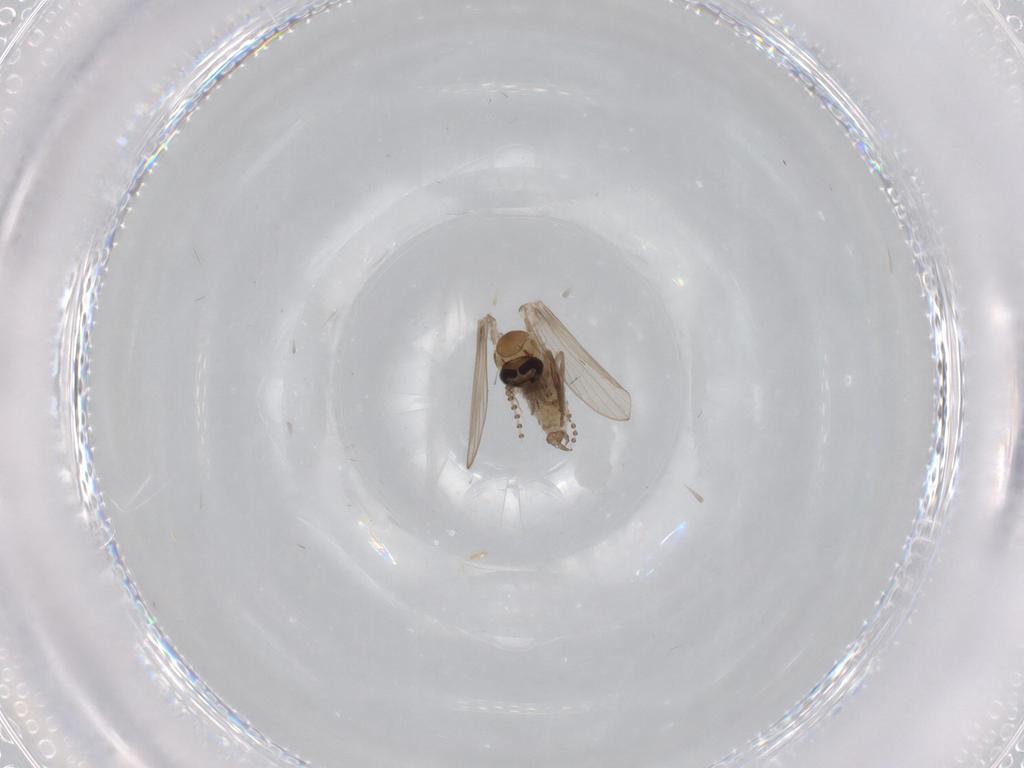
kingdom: Animalia
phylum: Arthropoda
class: Insecta
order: Diptera
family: Psychodidae
